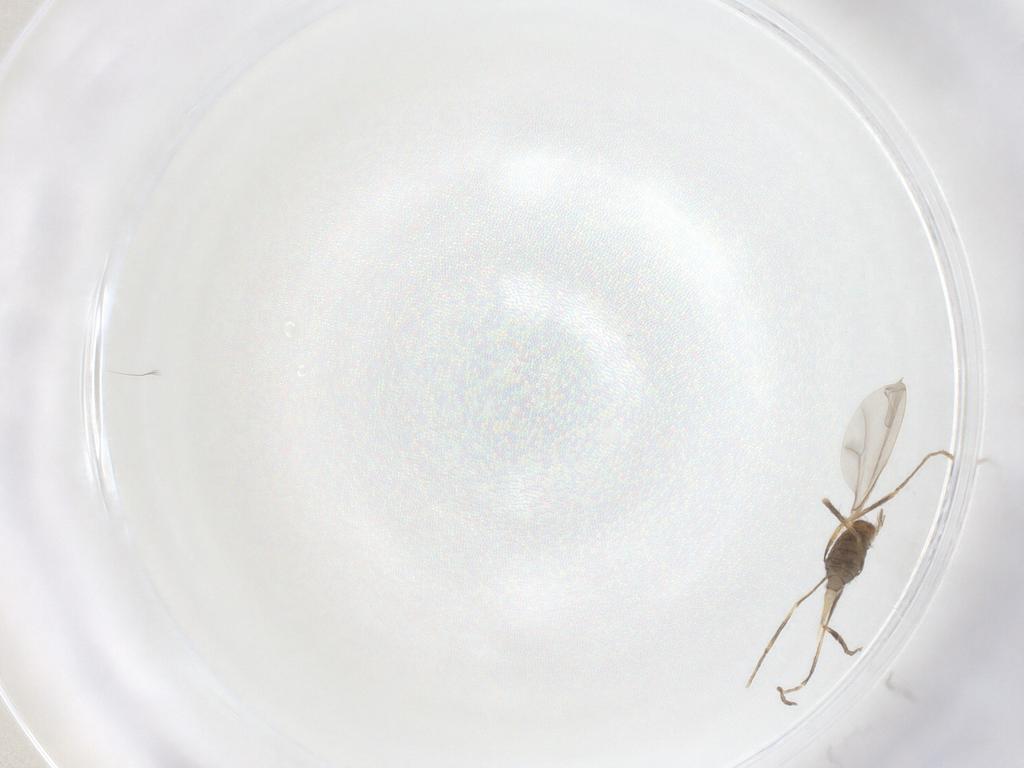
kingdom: Animalia
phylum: Arthropoda
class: Insecta
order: Diptera
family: Cecidomyiidae
